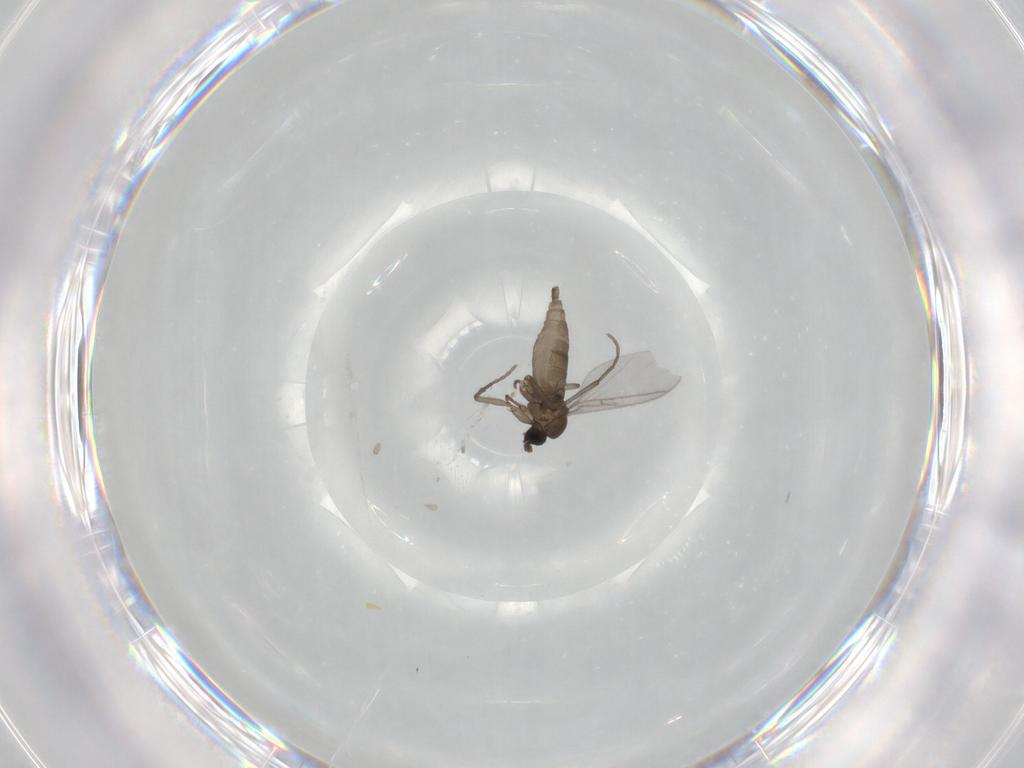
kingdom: Animalia
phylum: Arthropoda
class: Insecta
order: Diptera
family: Sciaridae
